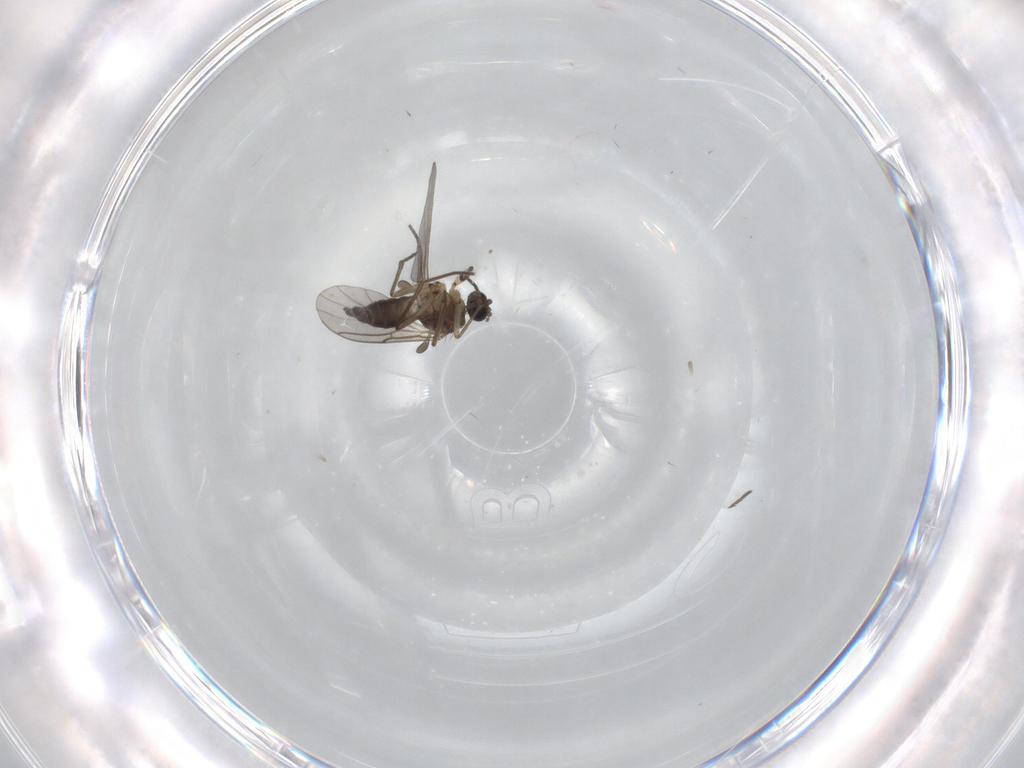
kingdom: Animalia
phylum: Arthropoda
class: Insecta
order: Diptera
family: Sciaridae
